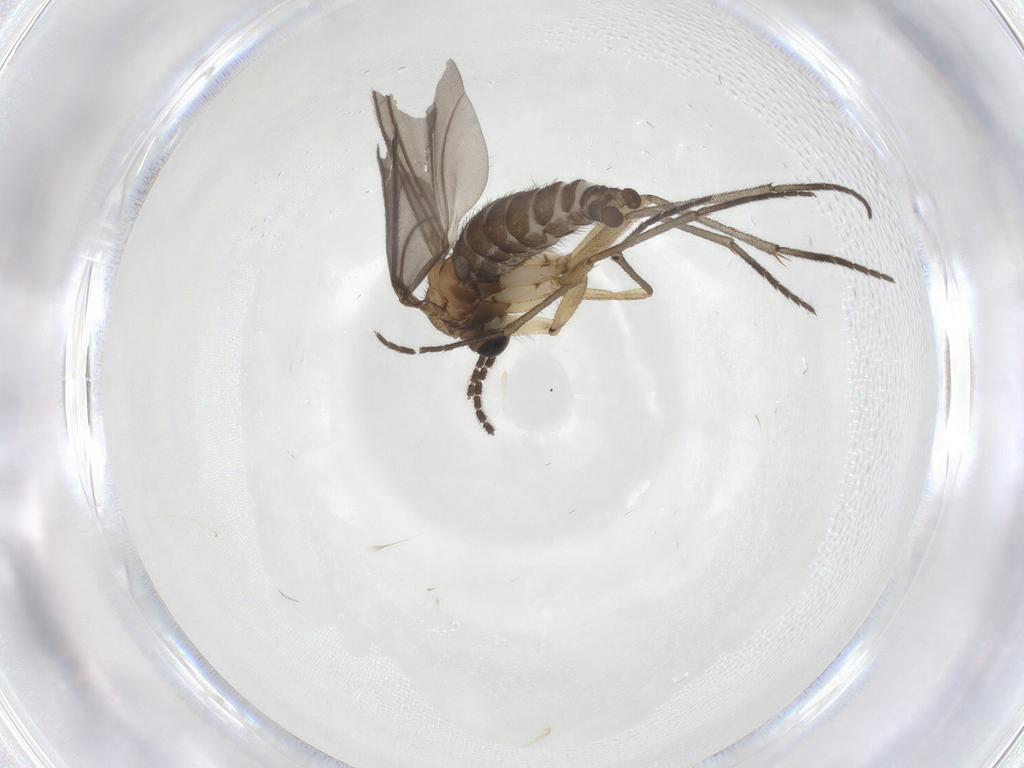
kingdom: Animalia
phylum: Arthropoda
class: Insecta
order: Diptera
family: Sciaridae
